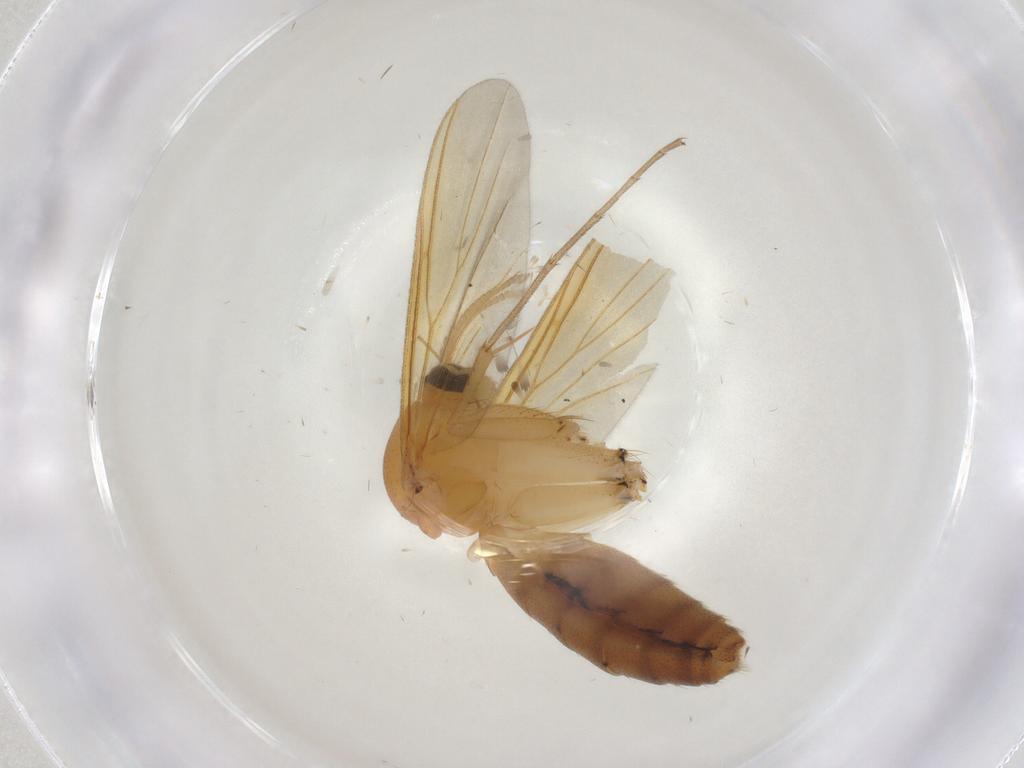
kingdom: Animalia
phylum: Arthropoda
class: Insecta
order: Diptera
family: Mycetophilidae
